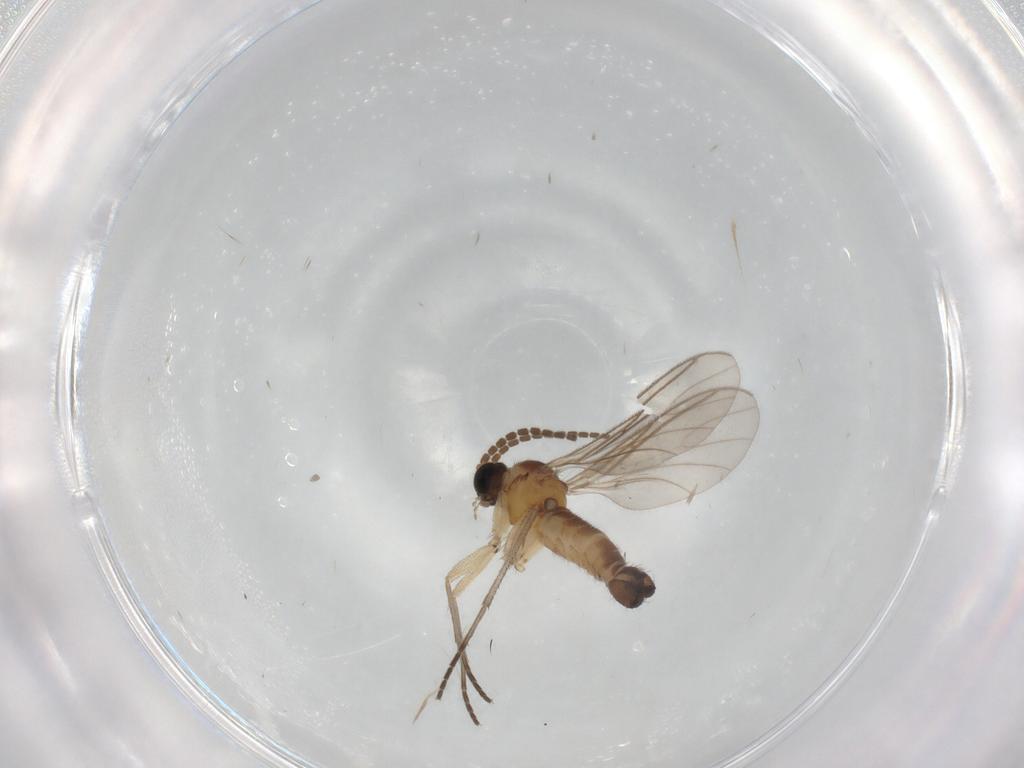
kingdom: Animalia
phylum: Arthropoda
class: Insecta
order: Diptera
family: Sciaridae
